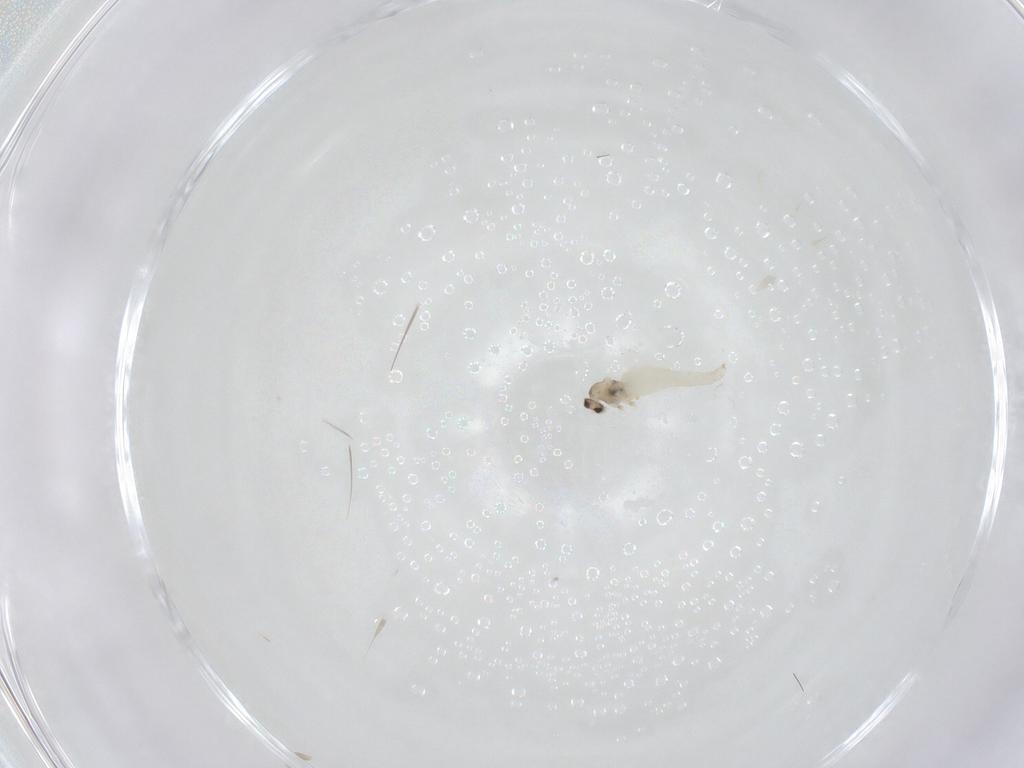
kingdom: Animalia
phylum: Arthropoda
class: Insecta
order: Diptera
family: Cecidomyiidae
